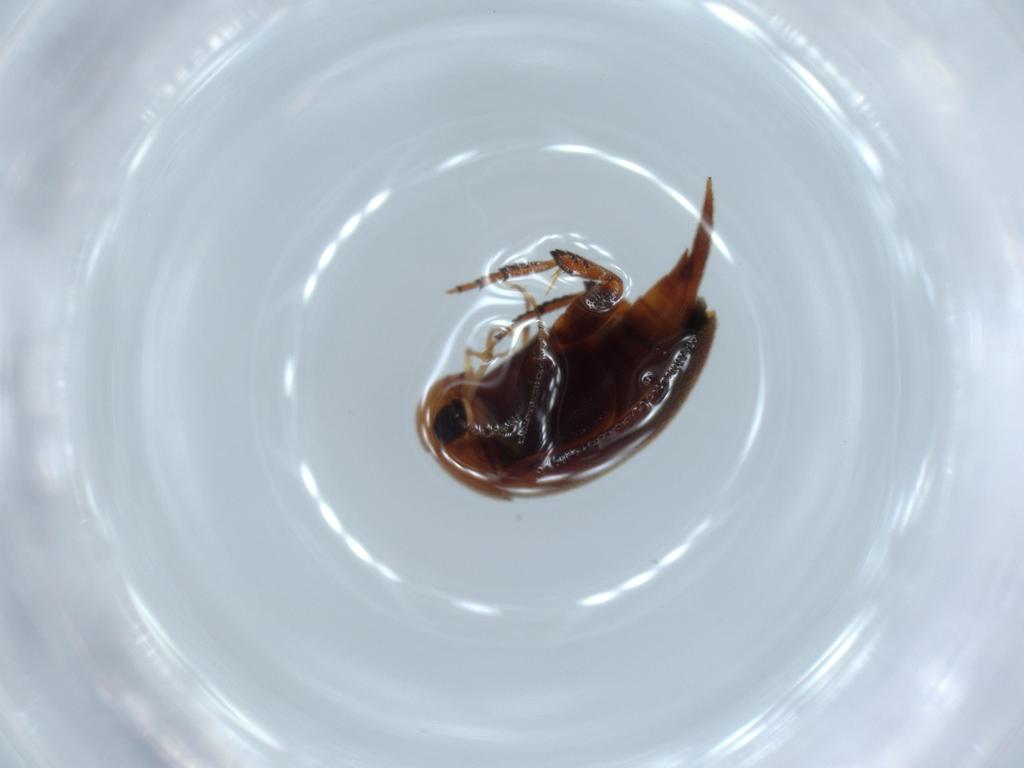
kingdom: Animalia
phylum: Arthropoda
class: Insecta
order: Coleoptera
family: Mordellidae
